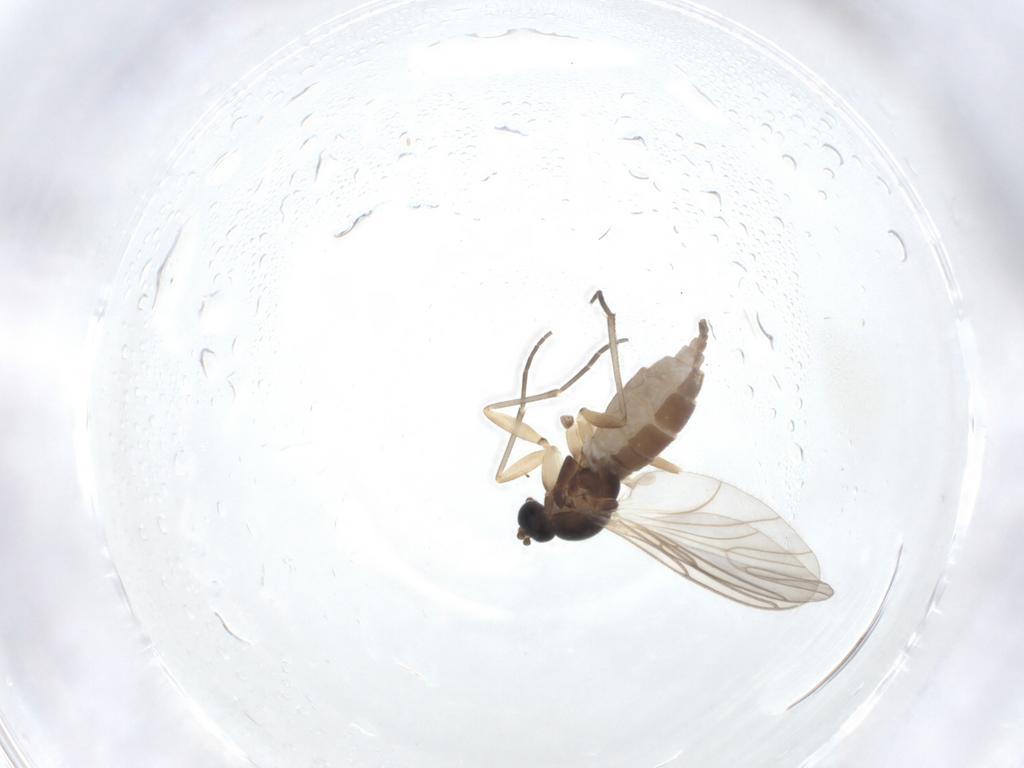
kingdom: Animalia
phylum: Arthropoda
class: Insecta
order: Diptera
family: Sciaridae
